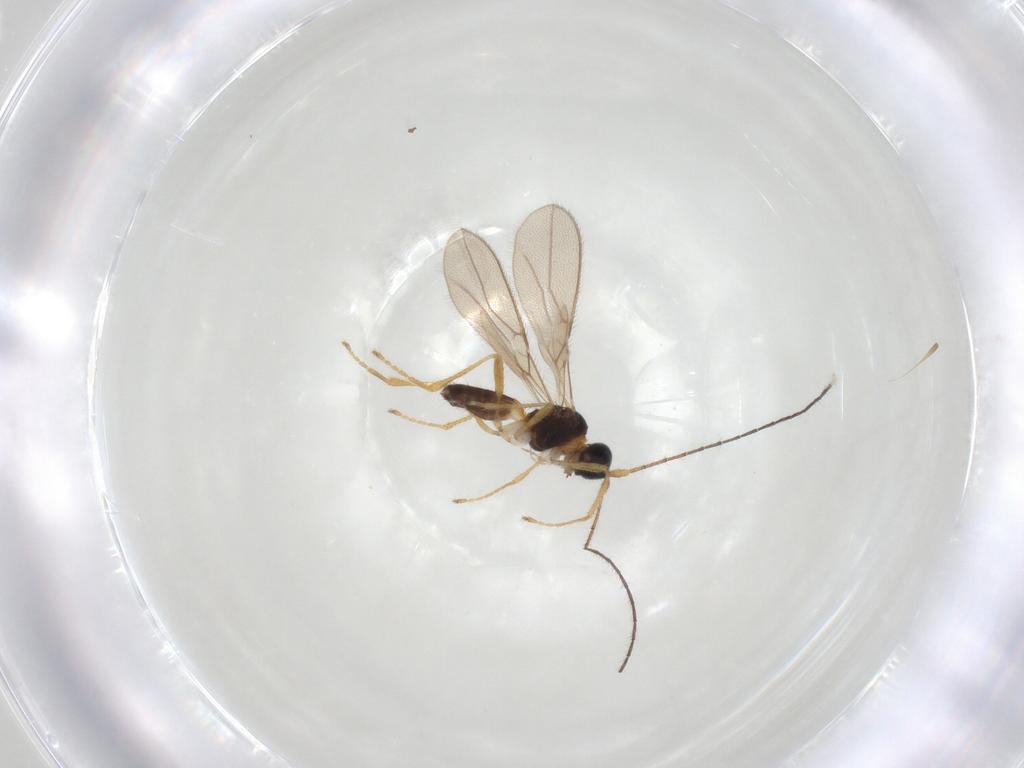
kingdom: Animalia
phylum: Arthropoda
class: Insecta
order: Hymenoptera
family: Braconidae
